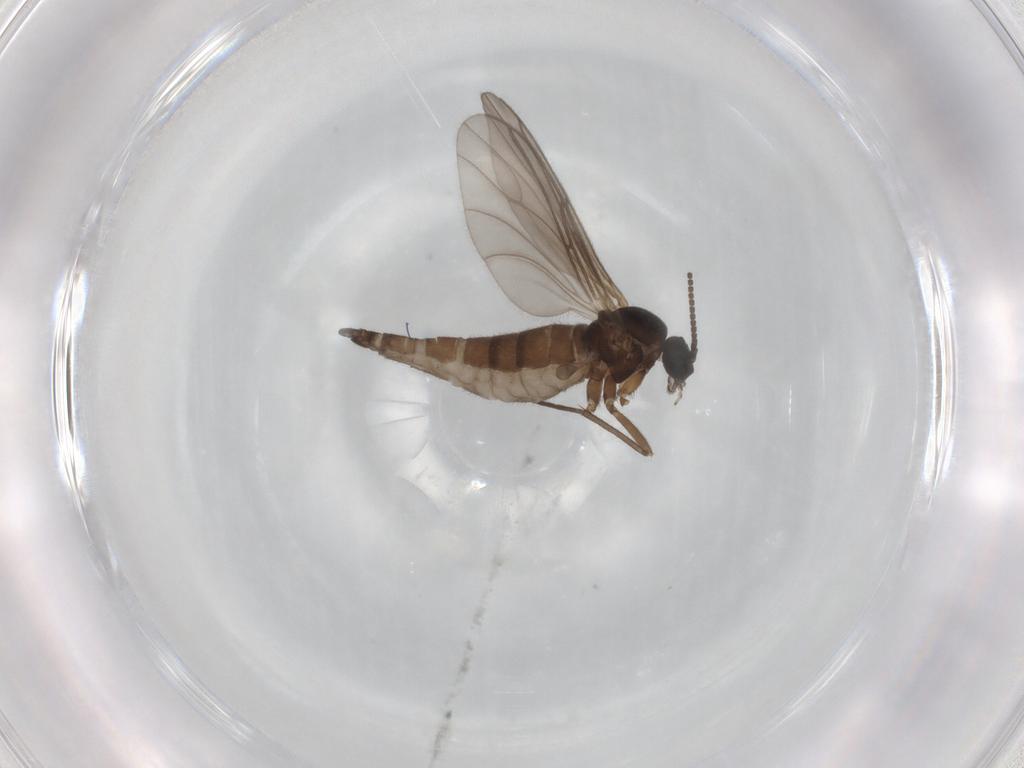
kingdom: Animalia
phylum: Arthropoda
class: Insecta
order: Diptera
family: Sciaridae
